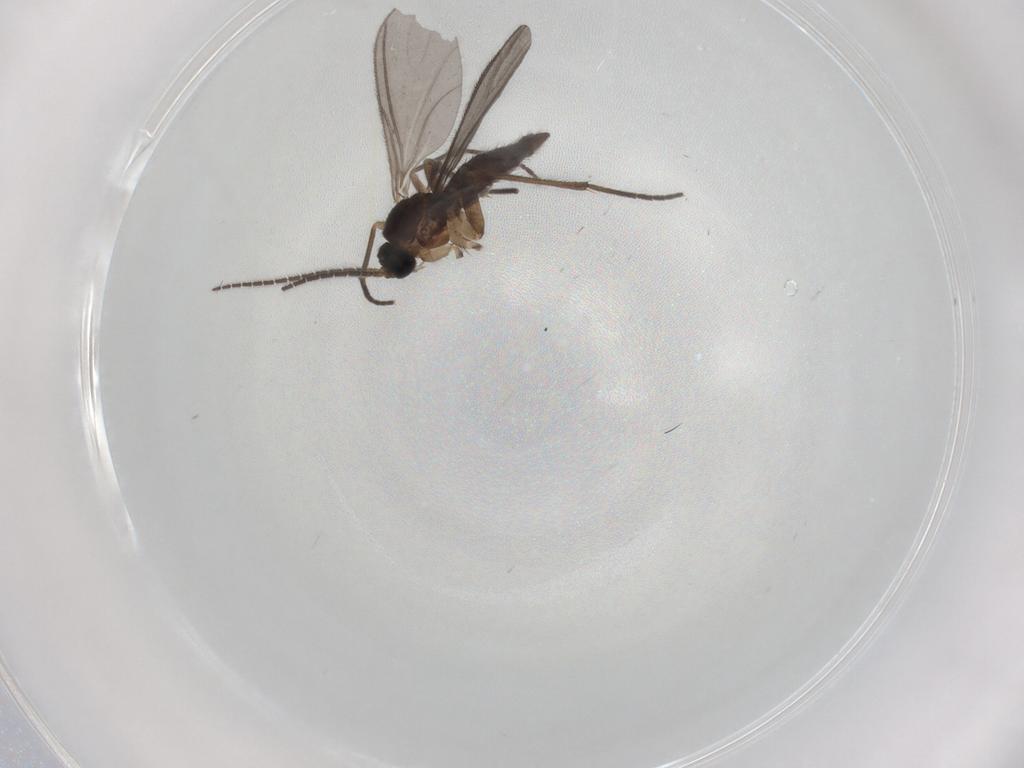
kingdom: Animalia
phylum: Arthropoda
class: Insecta
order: Diptera
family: Sciaridae
